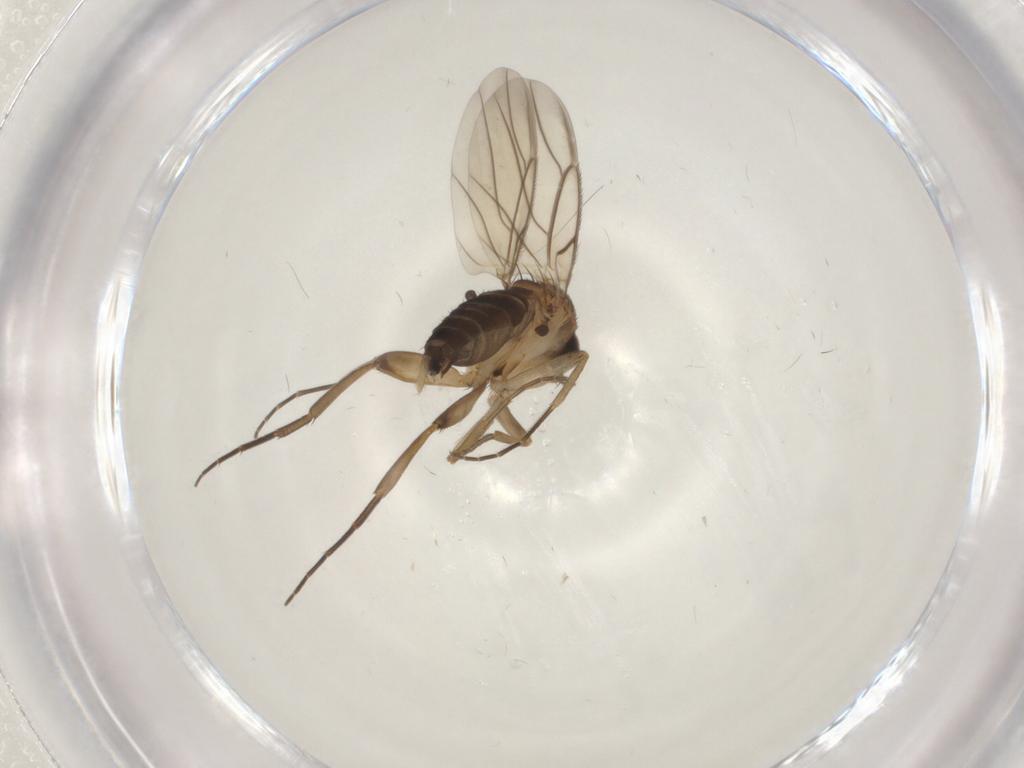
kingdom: Animalia
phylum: Arthropoda
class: Insecta
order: Diptera
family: Phoridae
